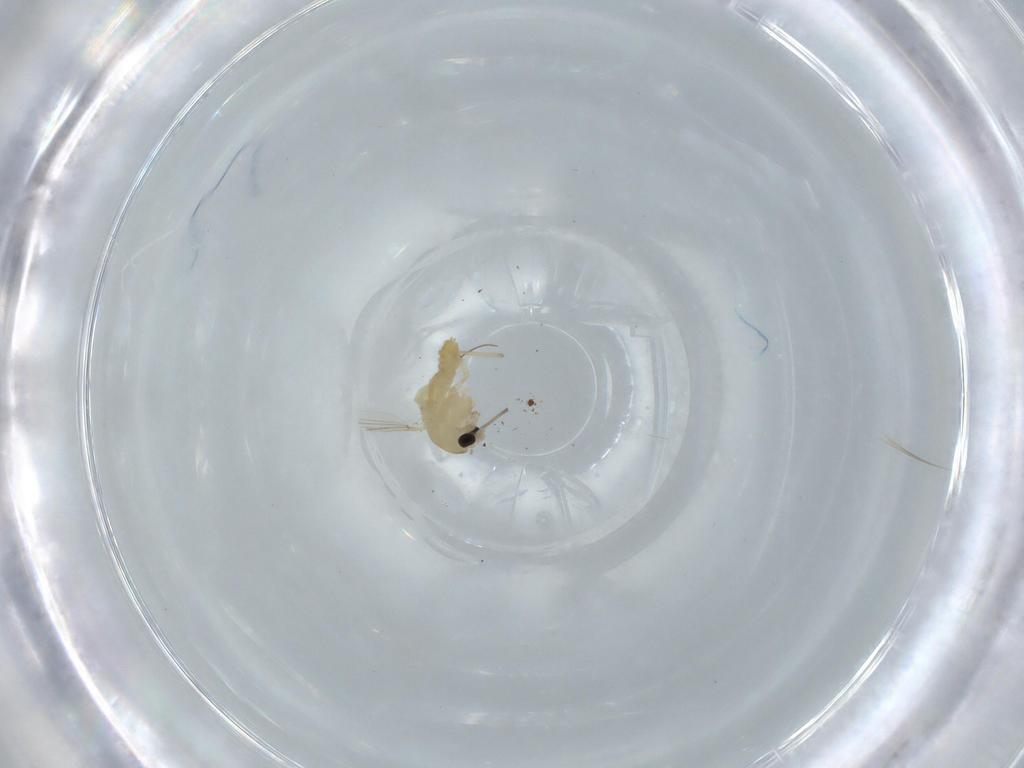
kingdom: Animalia
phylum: Arthropoda
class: Insecta
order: Diptera
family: Chironomidae
